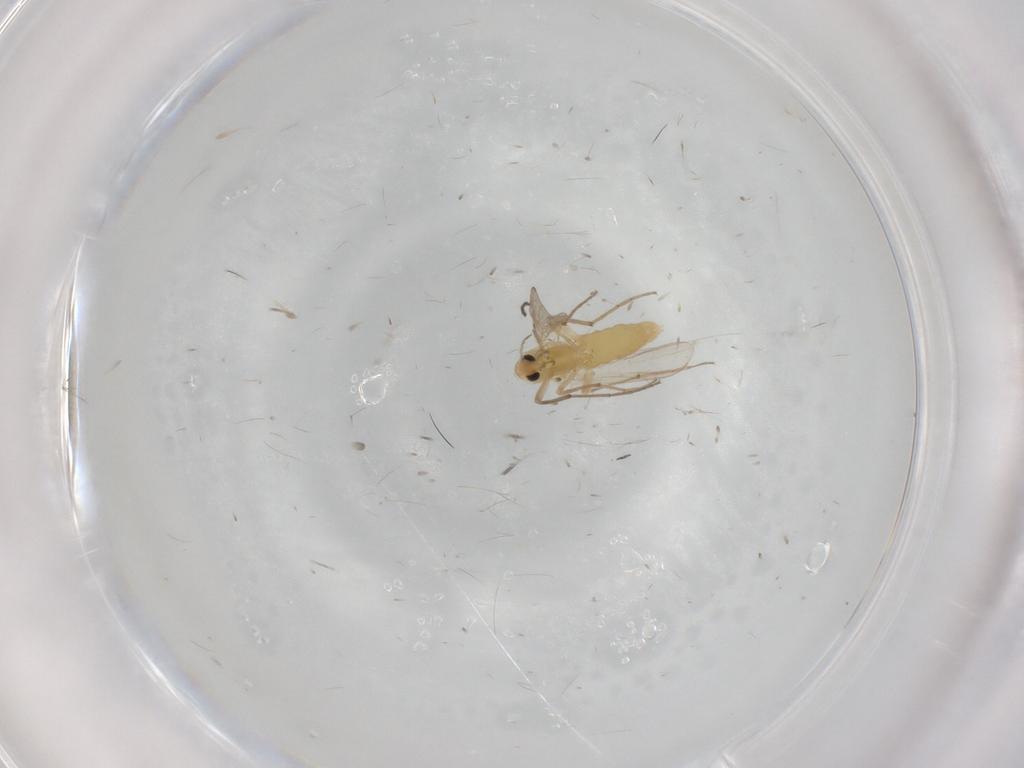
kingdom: Animalia
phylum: Arthropoda
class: Insecta
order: Diptera
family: Chironomidae
